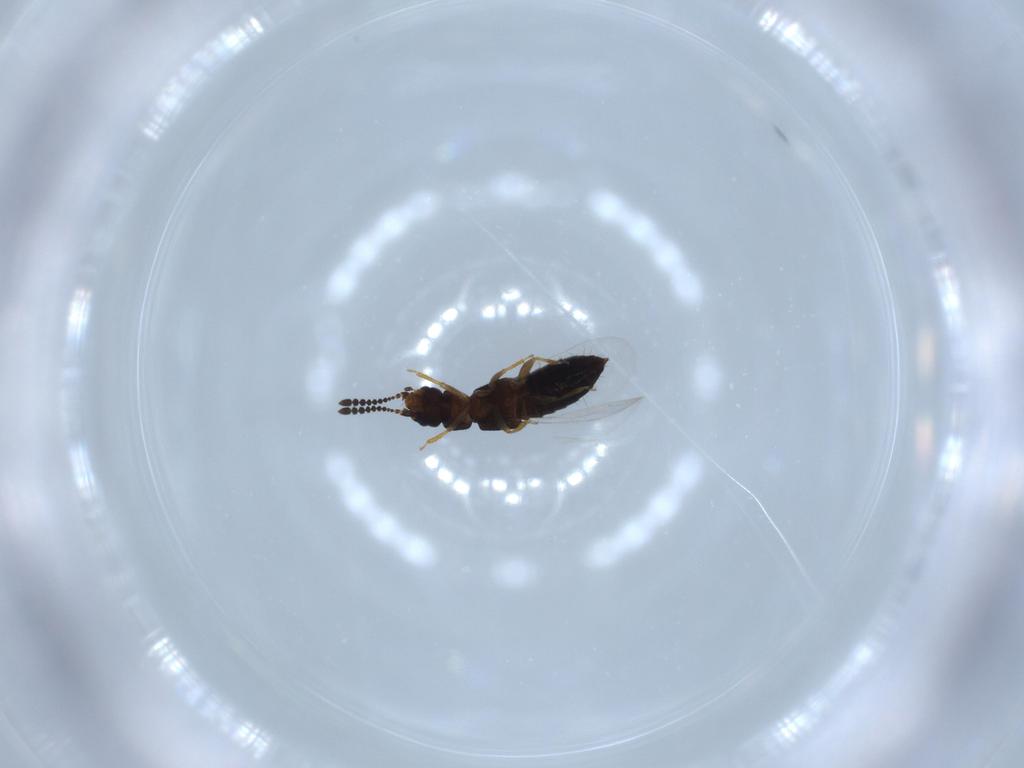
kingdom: Animalia
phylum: Arthropoda
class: Insecta
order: Coleoptera
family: Staphylinidae
